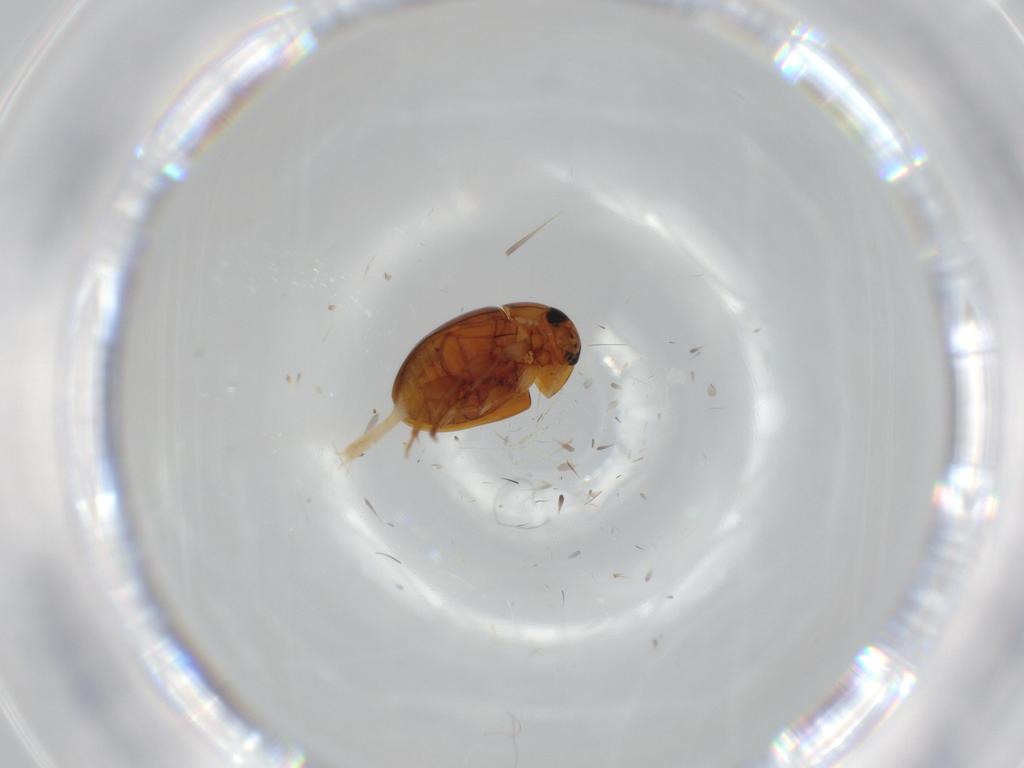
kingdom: Animalia
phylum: Arthropoda
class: Insecta
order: Coleoptera
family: Phalacridae
